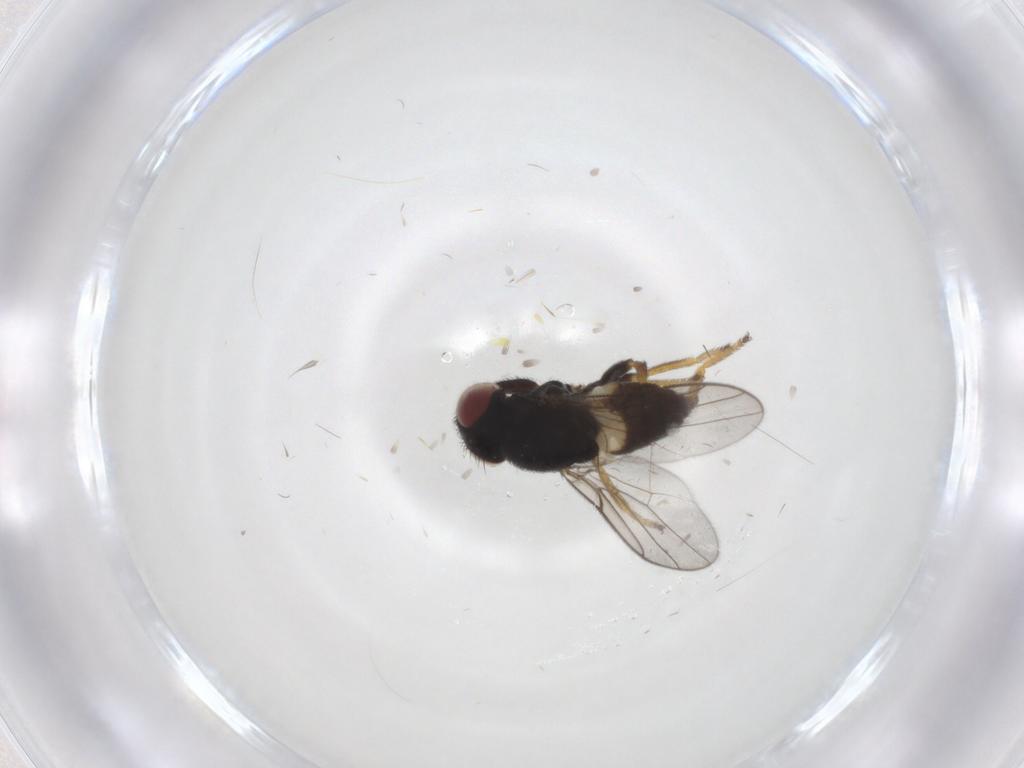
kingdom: Animalia
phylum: Arthropoda
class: Insecta
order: Diptera
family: Chloropidae
